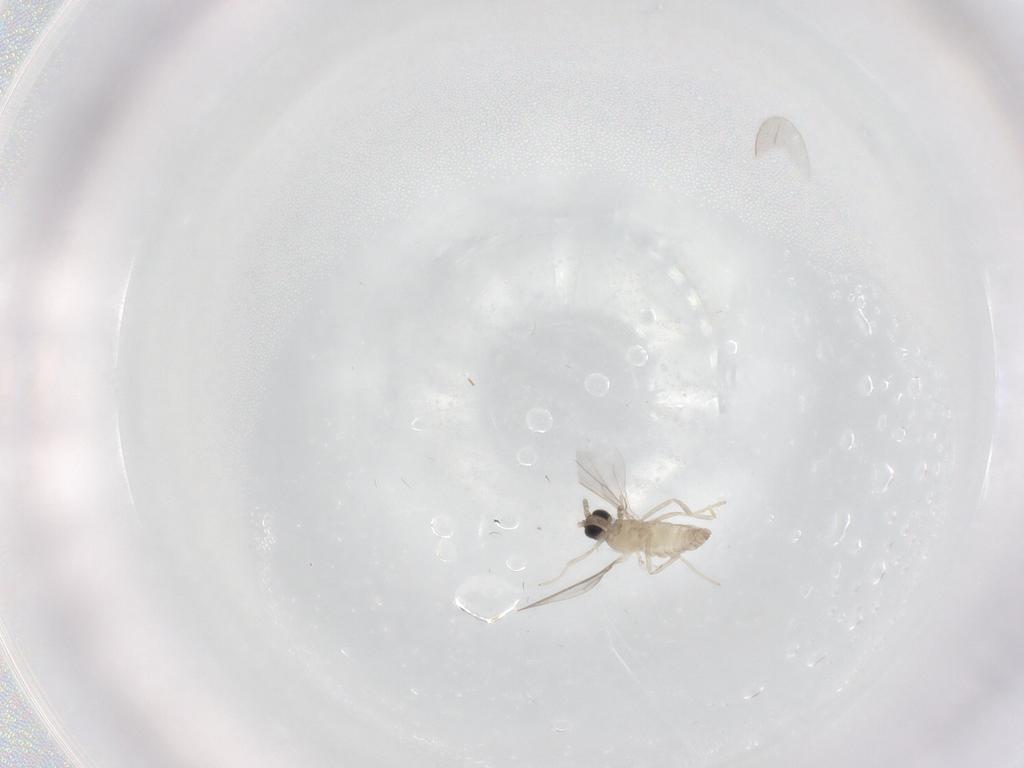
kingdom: Animalia
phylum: Arthropoda
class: Insecta
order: Diptera
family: Cecidomyiidae
